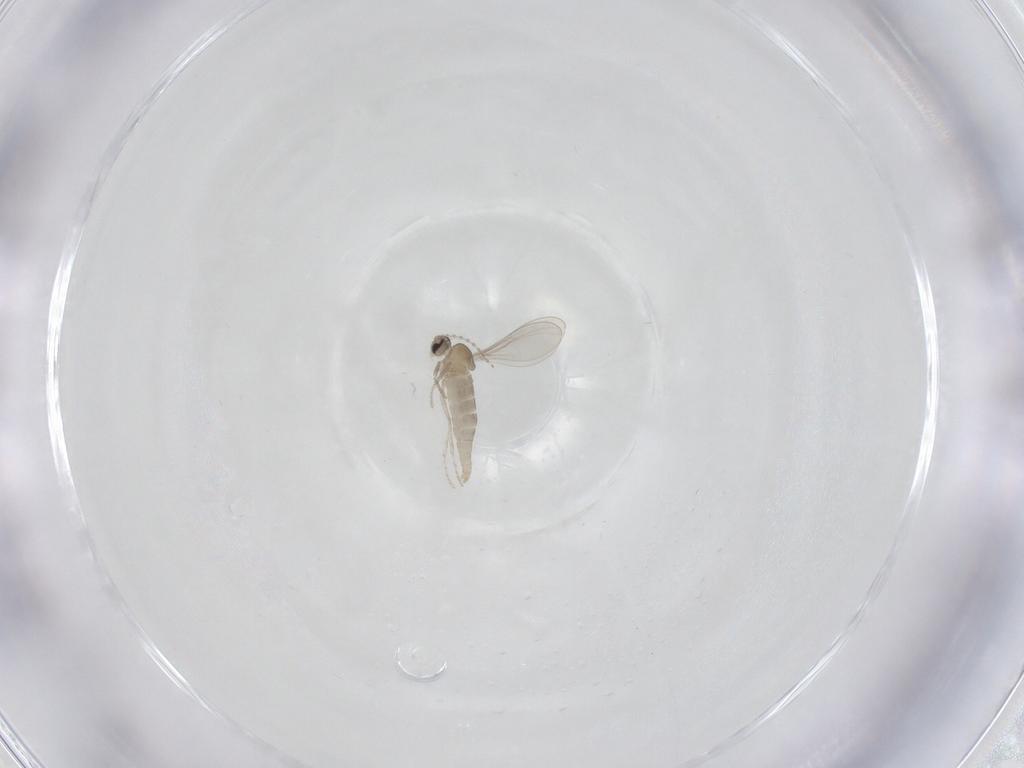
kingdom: Animalia
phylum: Arthropoda
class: Insecta
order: Diptera
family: Cecidomyiidae
